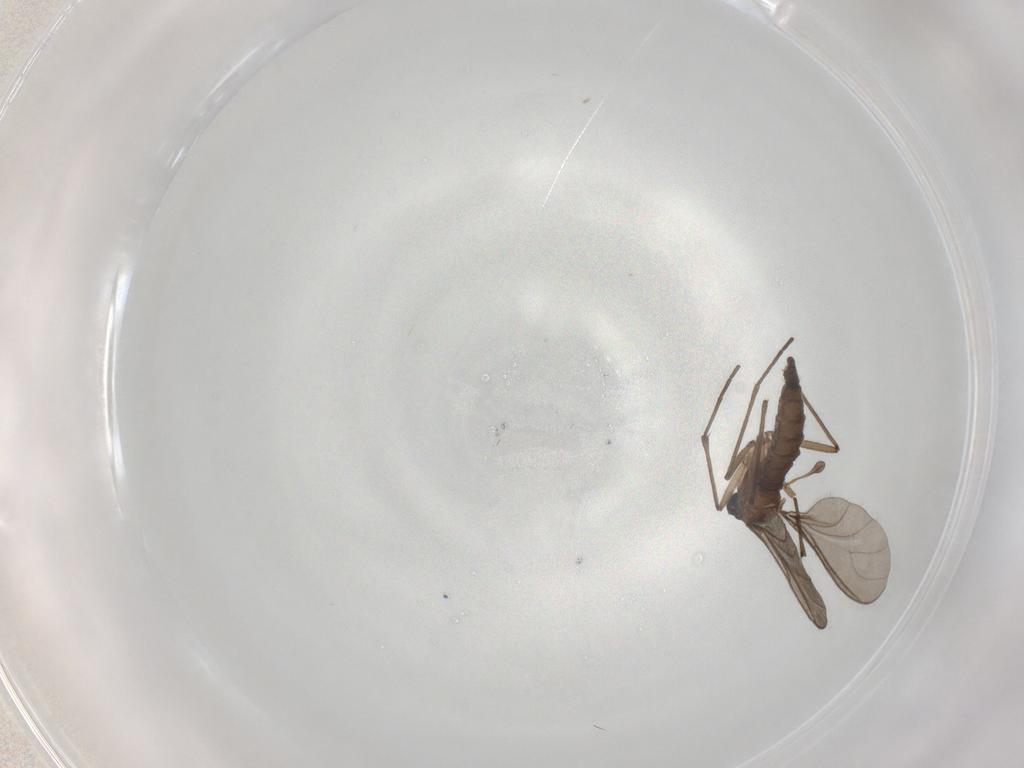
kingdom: Animalia
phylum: Arthropoda
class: Insecta
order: Diptera
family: Sciaridae
